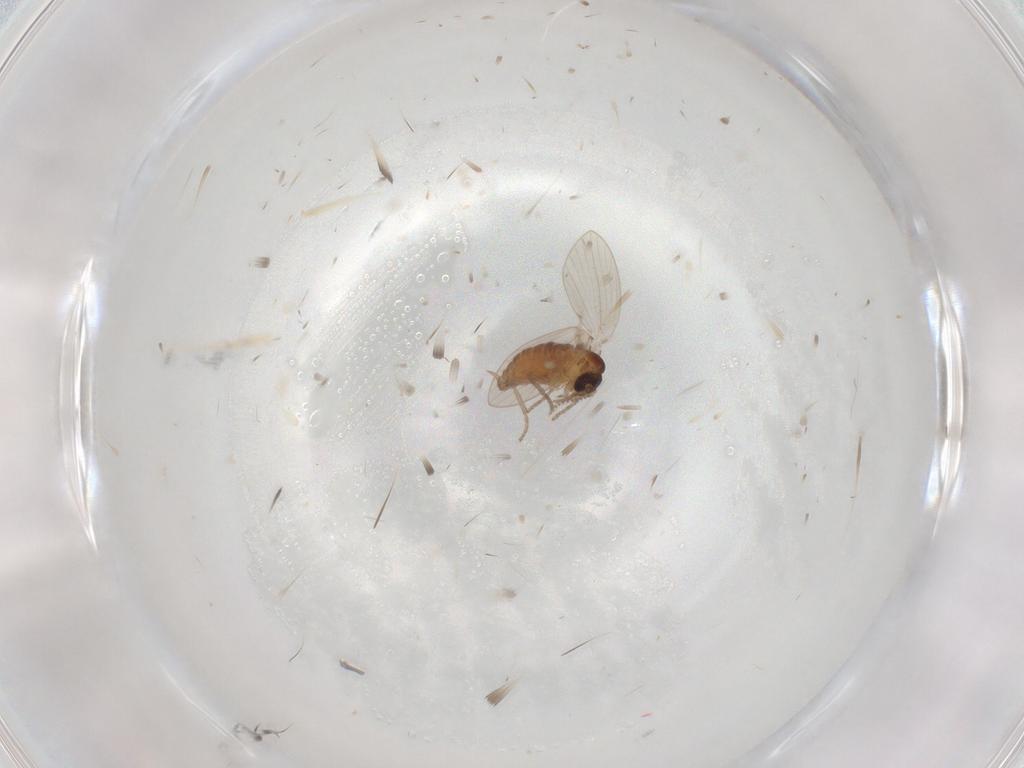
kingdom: Animalia
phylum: Arthropoda
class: Insecta
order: Diptera
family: Psychodidae
